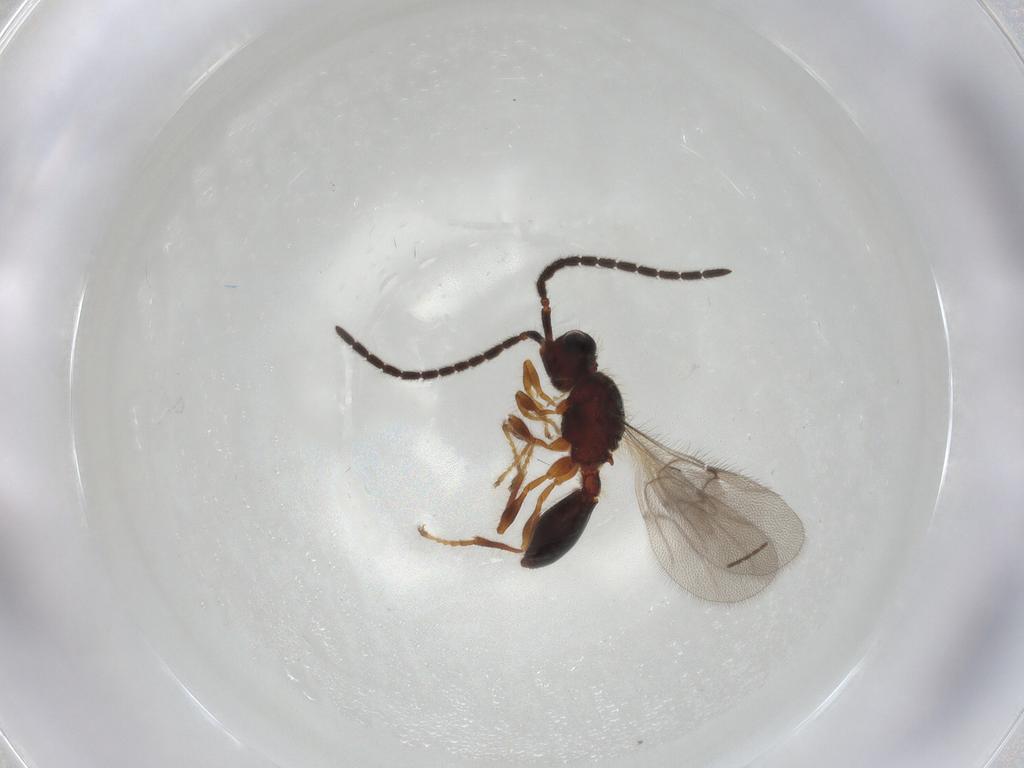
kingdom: Animalia
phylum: Arthropoda
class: Insecta
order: Hymenoptera
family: Diapriidae
